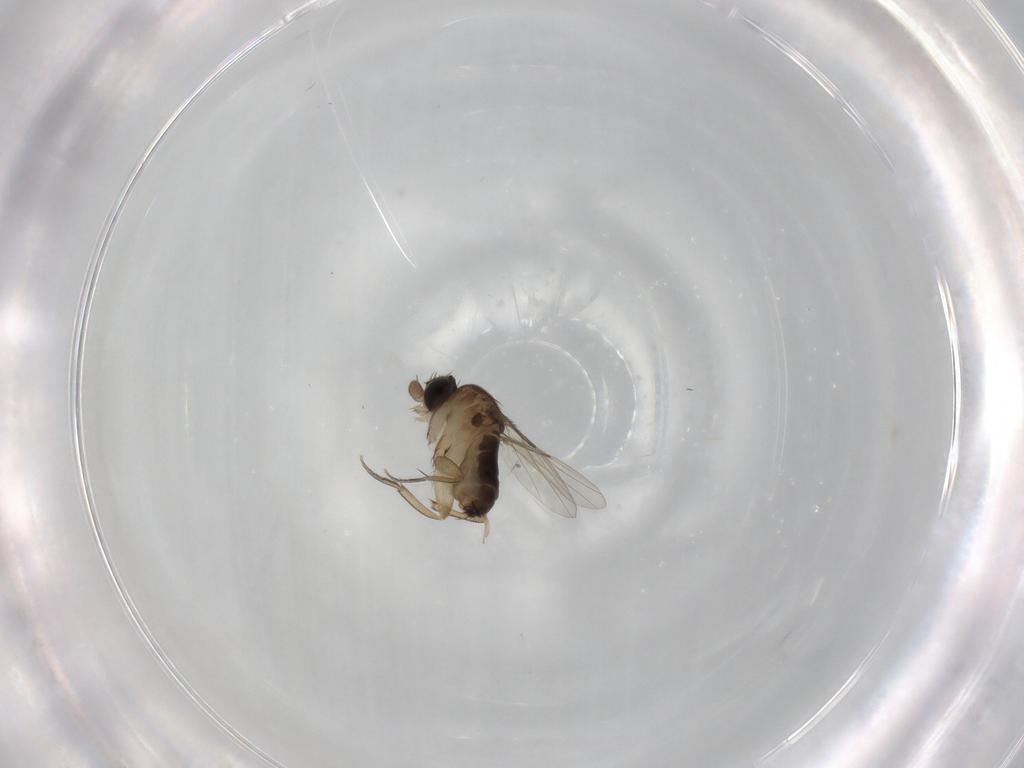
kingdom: Animalia
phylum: Arthropoda
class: Insecta
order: Diptera
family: Phoridae
